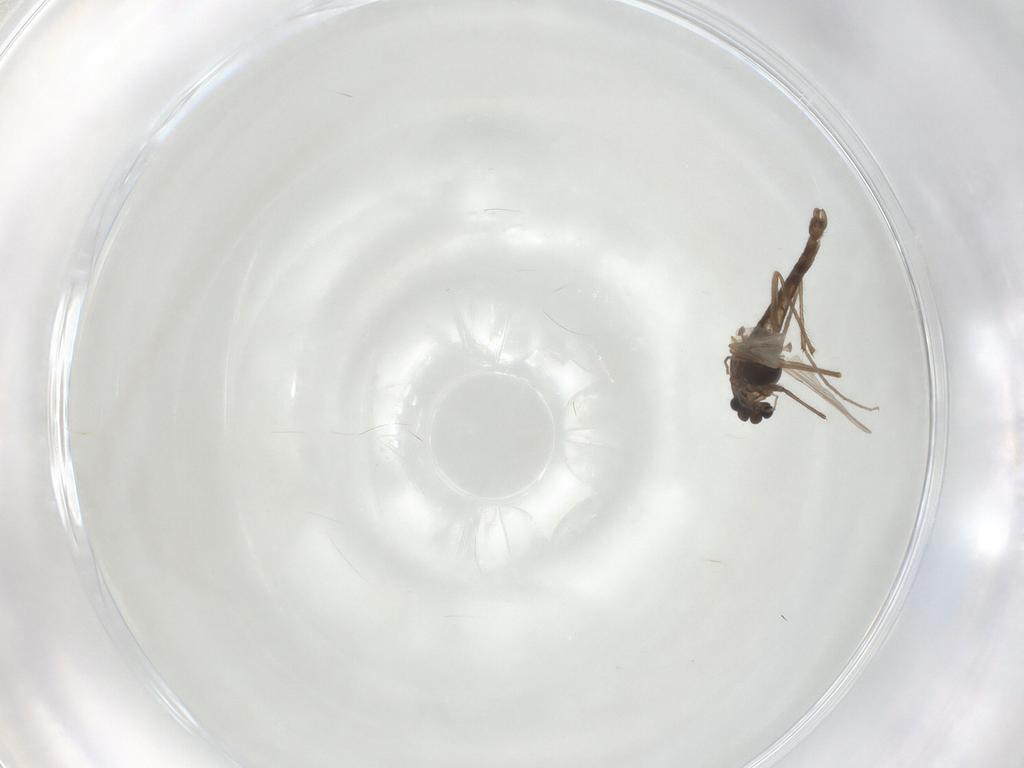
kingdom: Animalia
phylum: Arthropoda
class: Insecta
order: Diptera
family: Chironomidae
